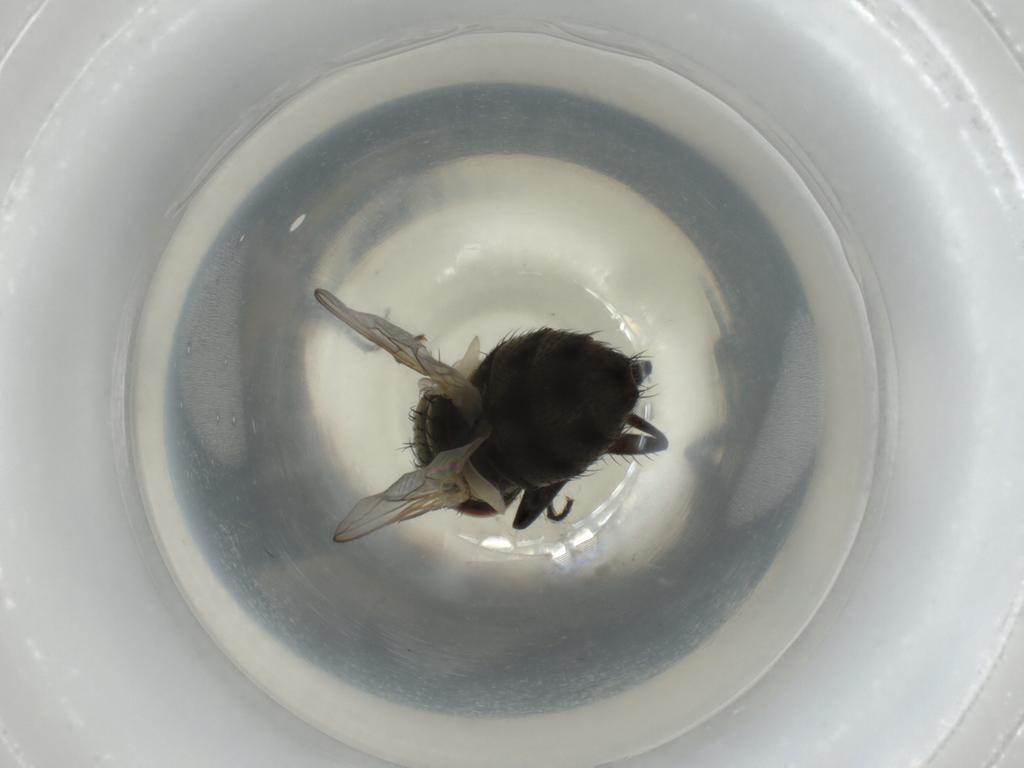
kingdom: Animalia
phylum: Arthropoda
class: Insecta
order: Diptera
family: Sarcophagidae
